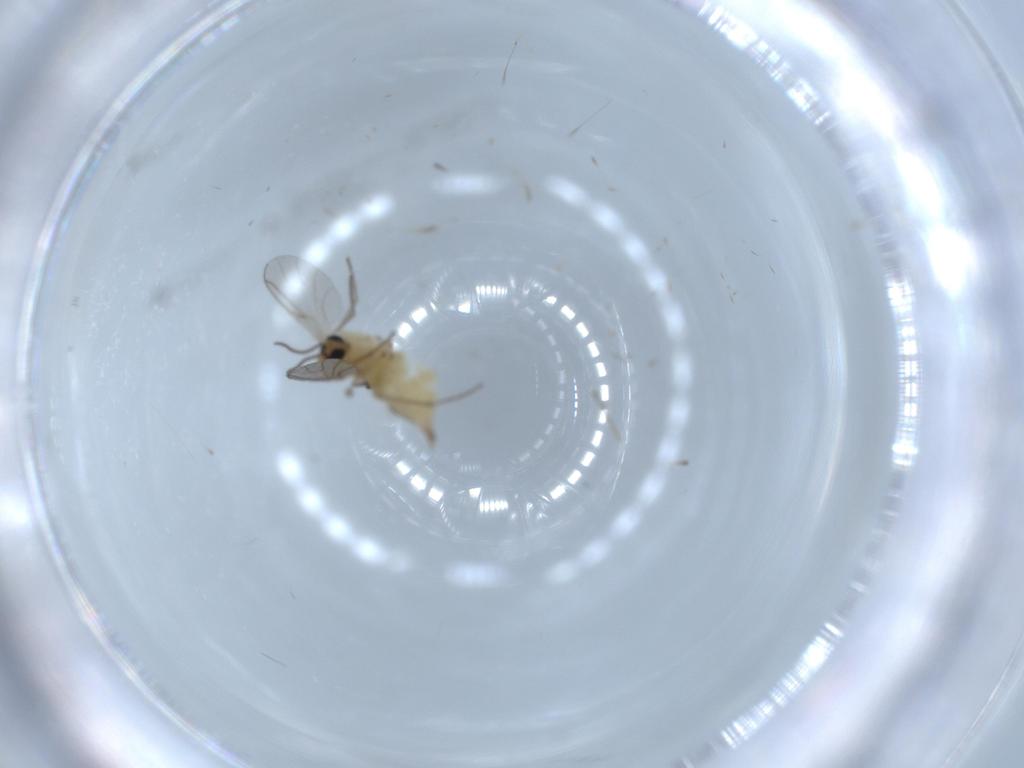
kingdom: Animalia
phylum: Arthropoda
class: Insecta
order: Diptera
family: Sciaridae
